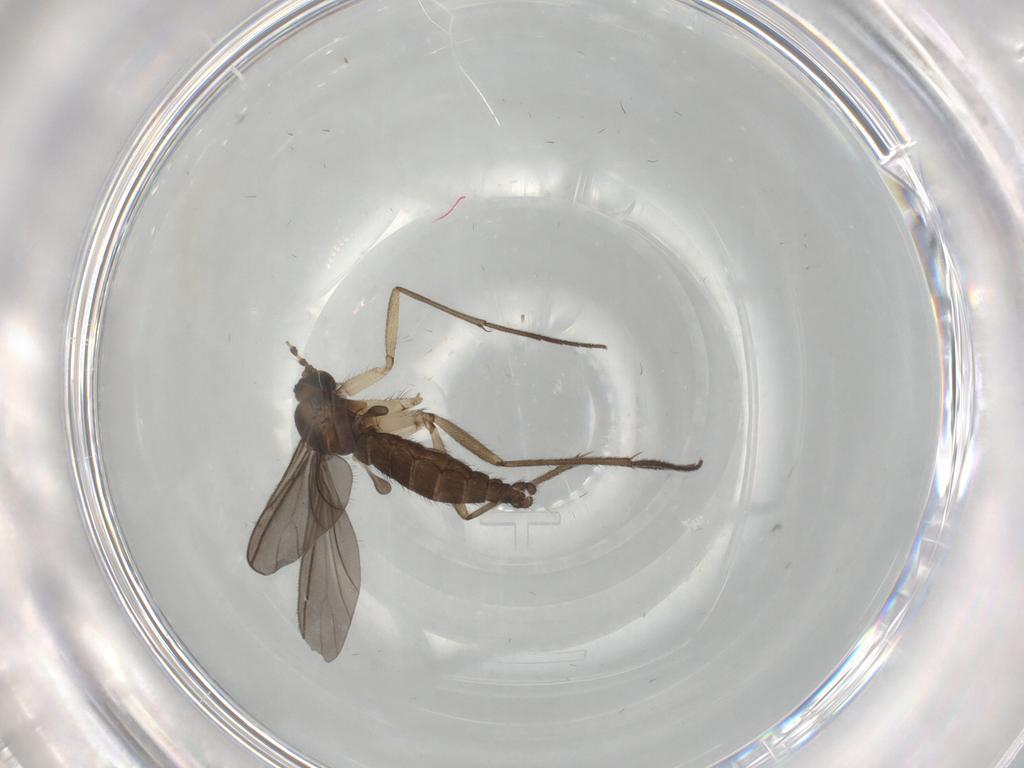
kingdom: Animalia
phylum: Arthropoda
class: Insecta
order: Diptera
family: Sciaridae
